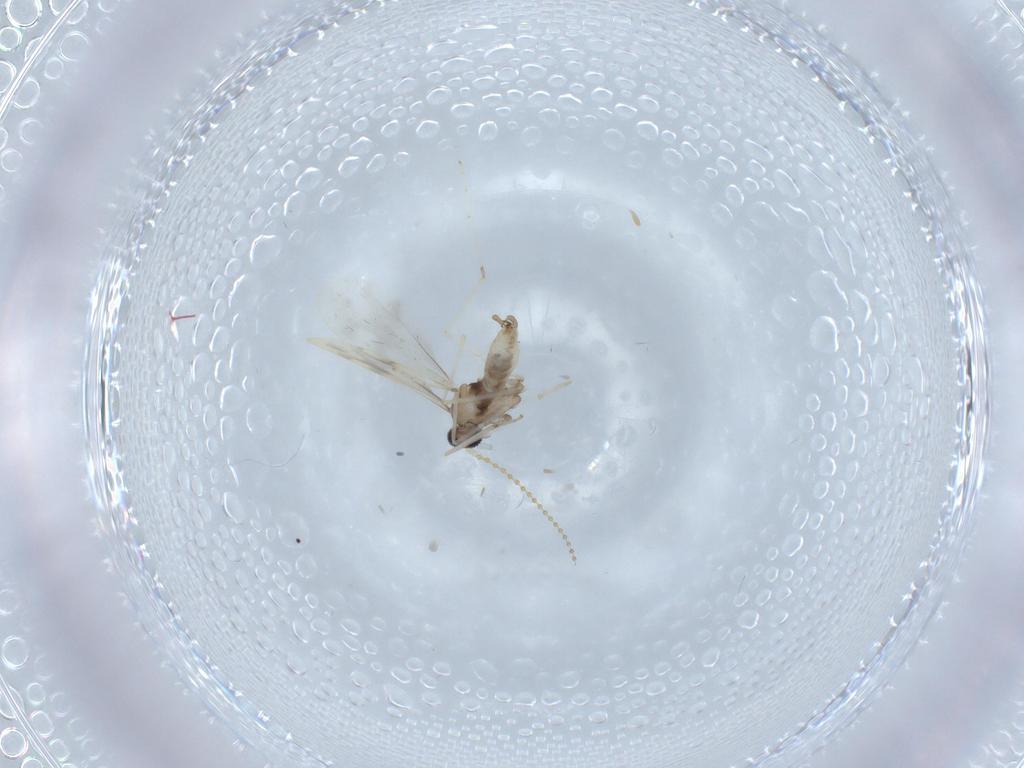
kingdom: Animalia
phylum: Arthropoda
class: Insecta
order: Diptera
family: Cecidomyiidae
